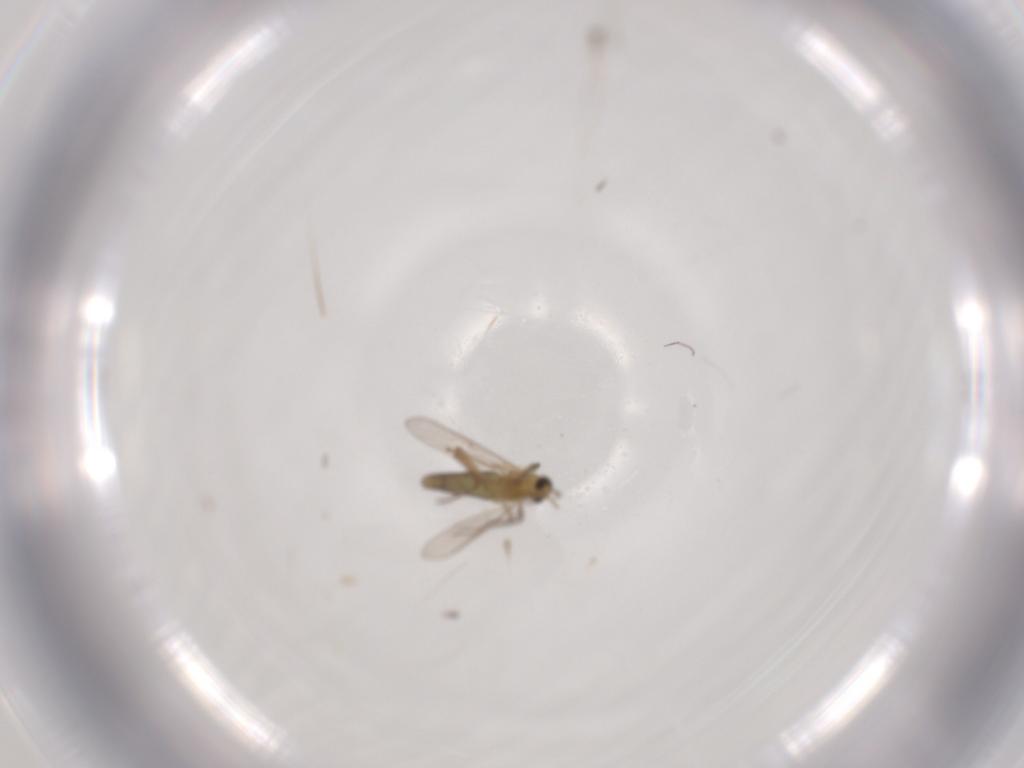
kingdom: Animalia
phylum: Arthropoda
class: Insecta
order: Diptera
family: Chironomidae
